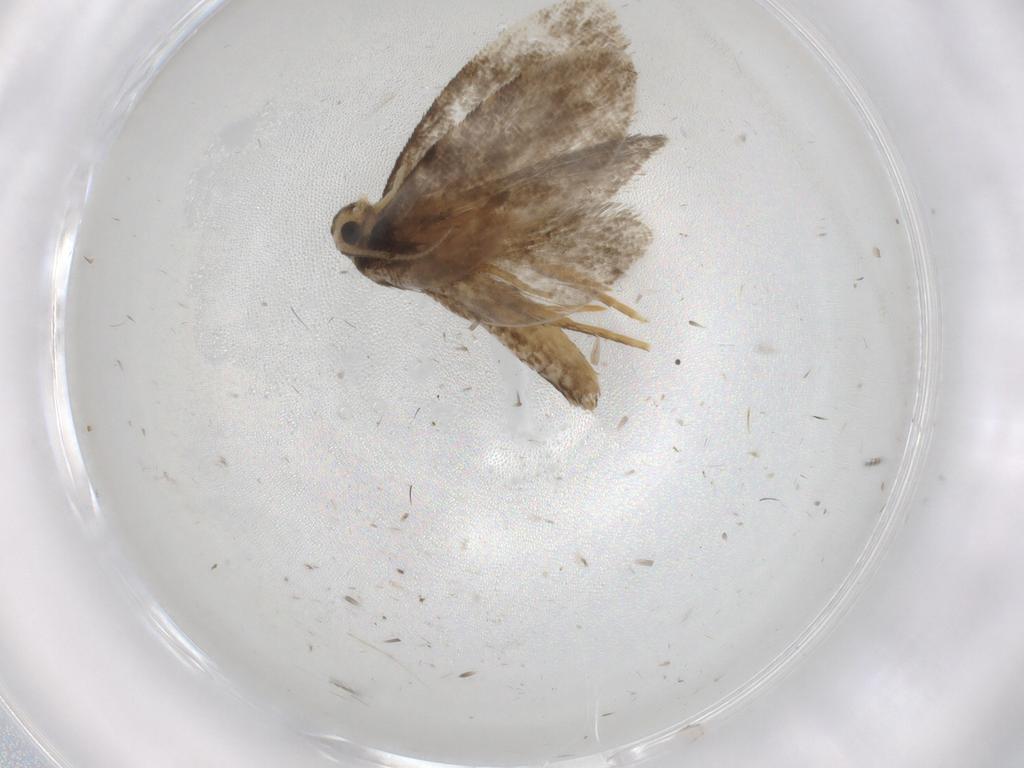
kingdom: Animalia
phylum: Arthropoda
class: Insecta
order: Lepidoptera
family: Psychidae
